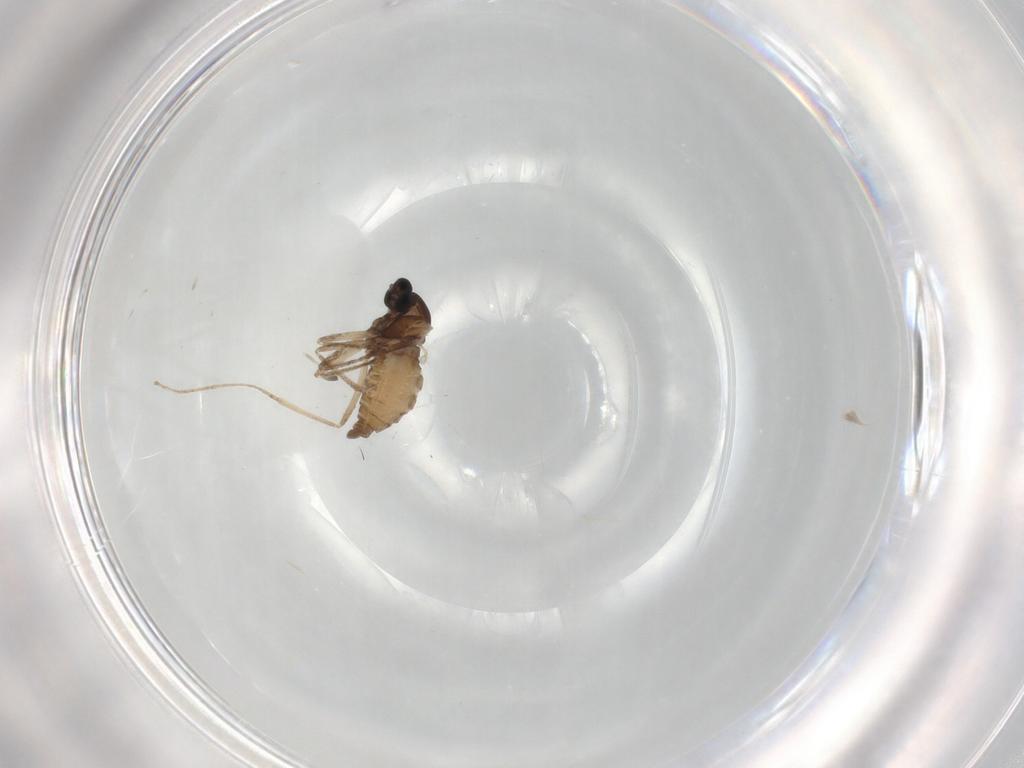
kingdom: Animalia
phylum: Arthropoda
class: Insecta
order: Diptera
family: Cecidomyiidae
